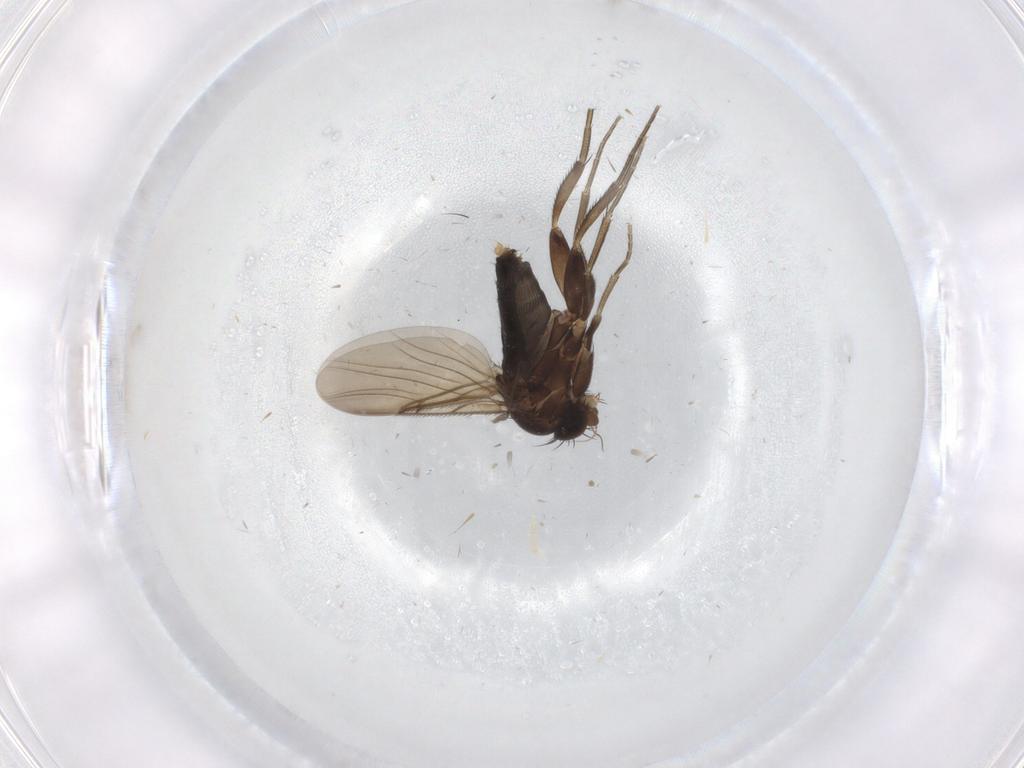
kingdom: Animalia
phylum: Arthropoda
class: Insecta
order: Diptera
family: Phoridae
